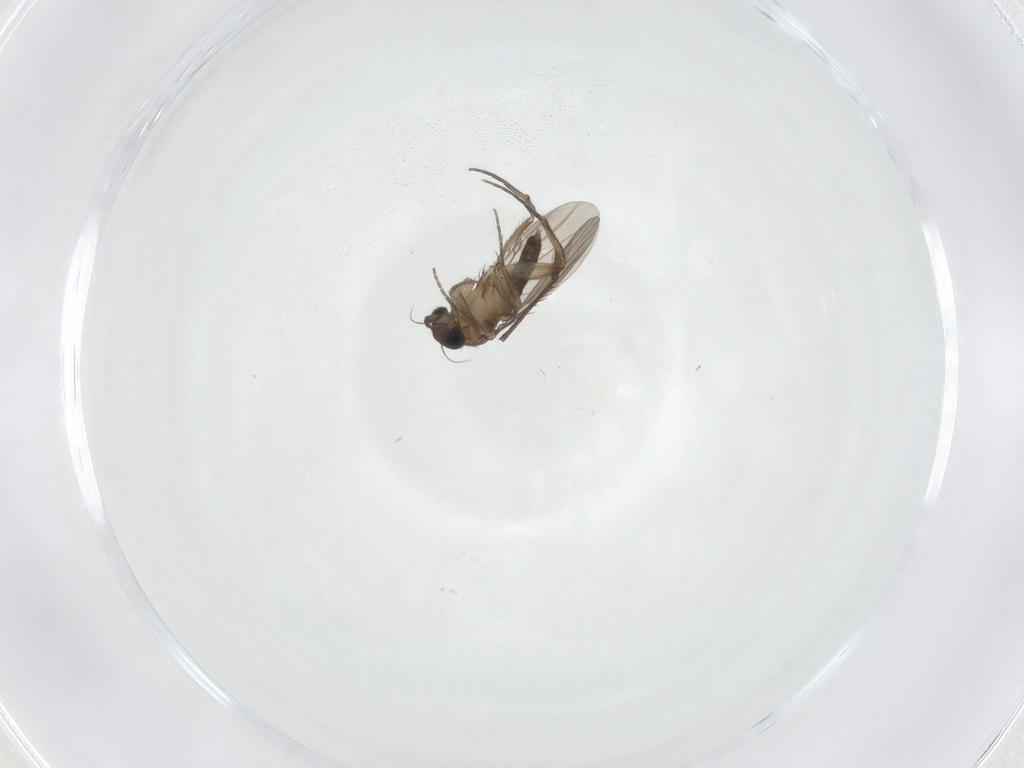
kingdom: Animalia
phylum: Arthropoda
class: Insecta
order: Diptera
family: Phoridae
